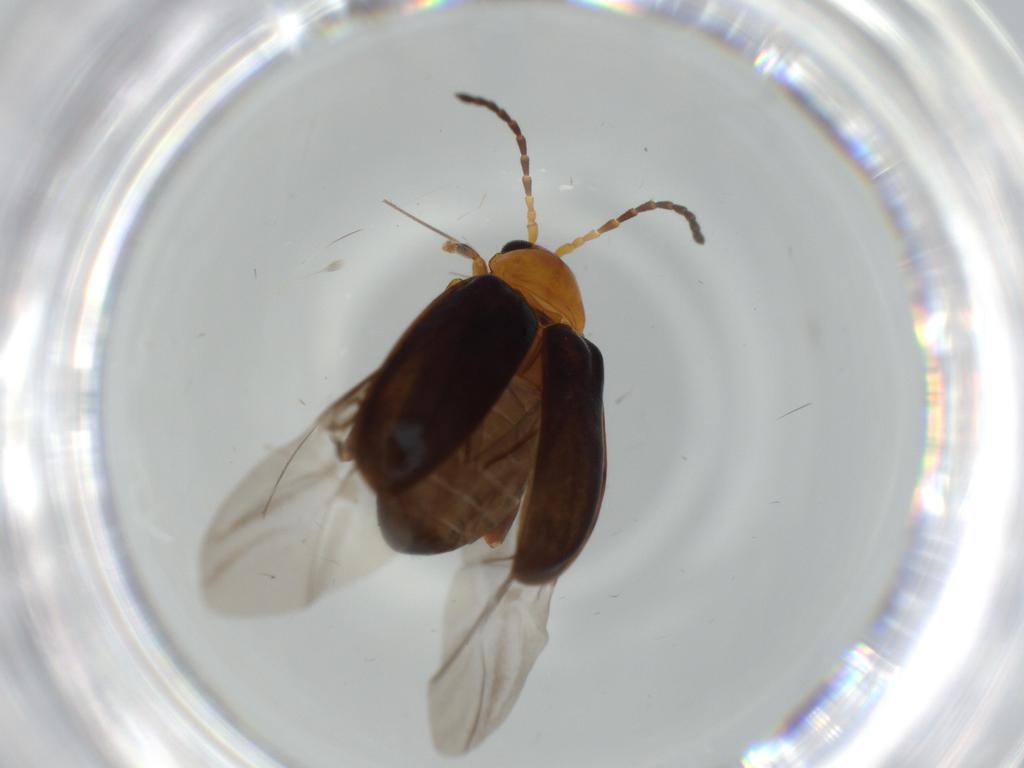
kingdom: Animalia
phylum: Arthropoda
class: Insecta
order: Coleoptera
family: Chrysomelidae
